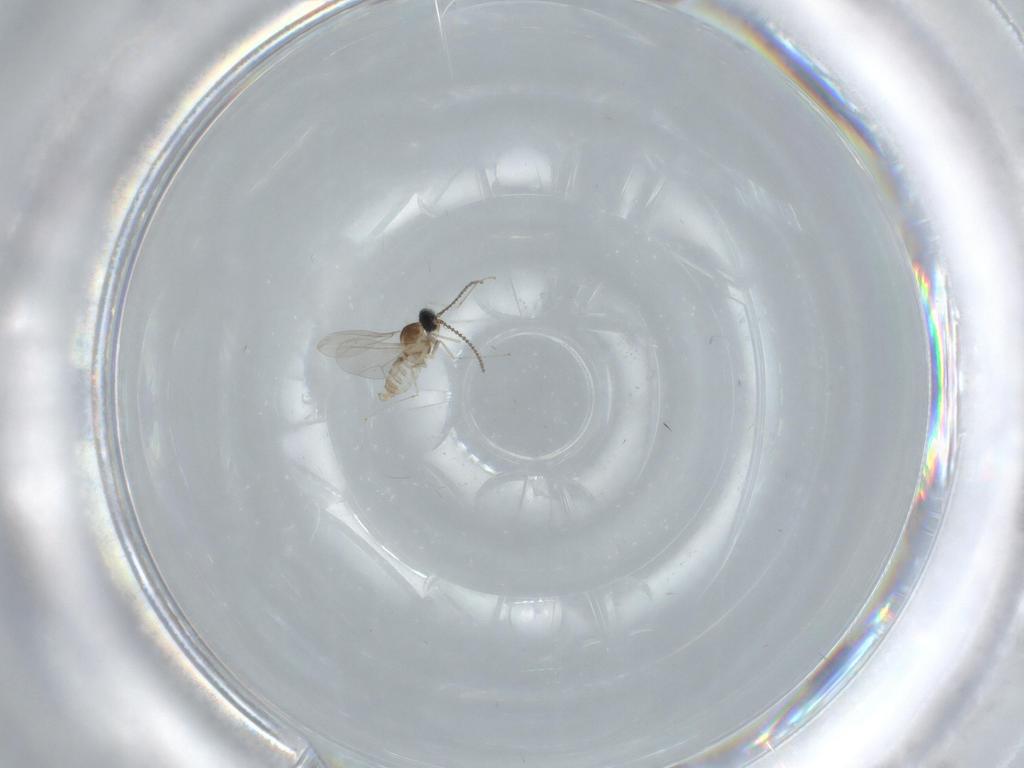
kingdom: Animalia
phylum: Arthropoda
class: Insecta
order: Diptera
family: Cecidomyiidae
